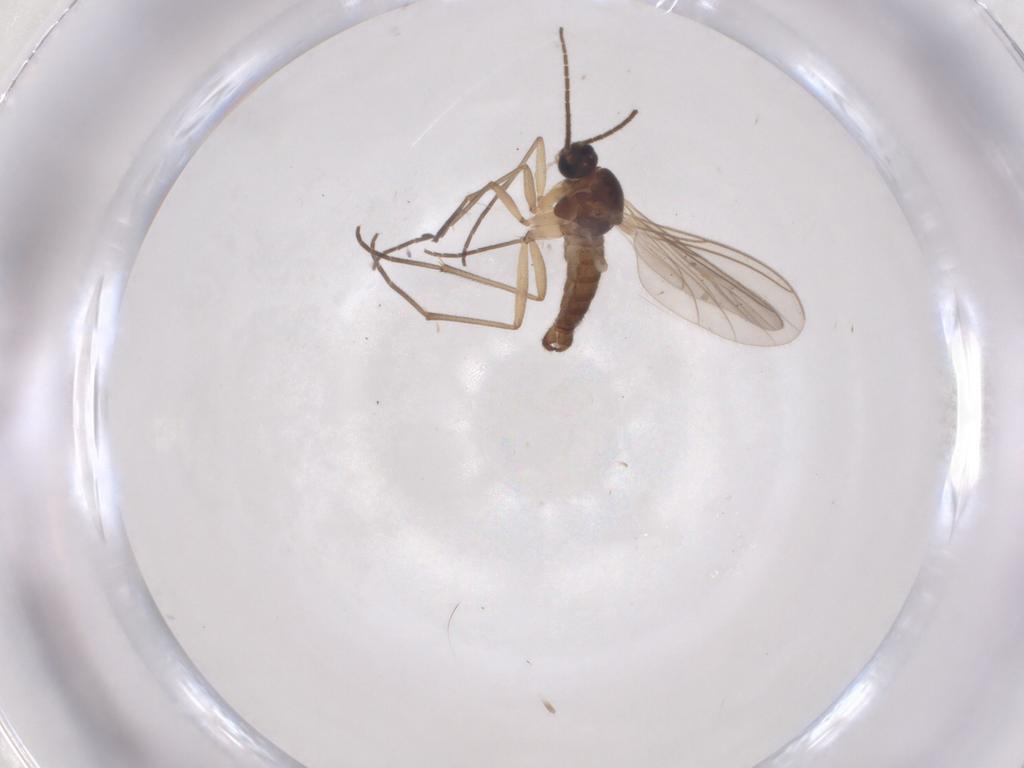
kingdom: Animalia
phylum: Arthropoda
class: Insecta
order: Diptera
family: Sciaridae
